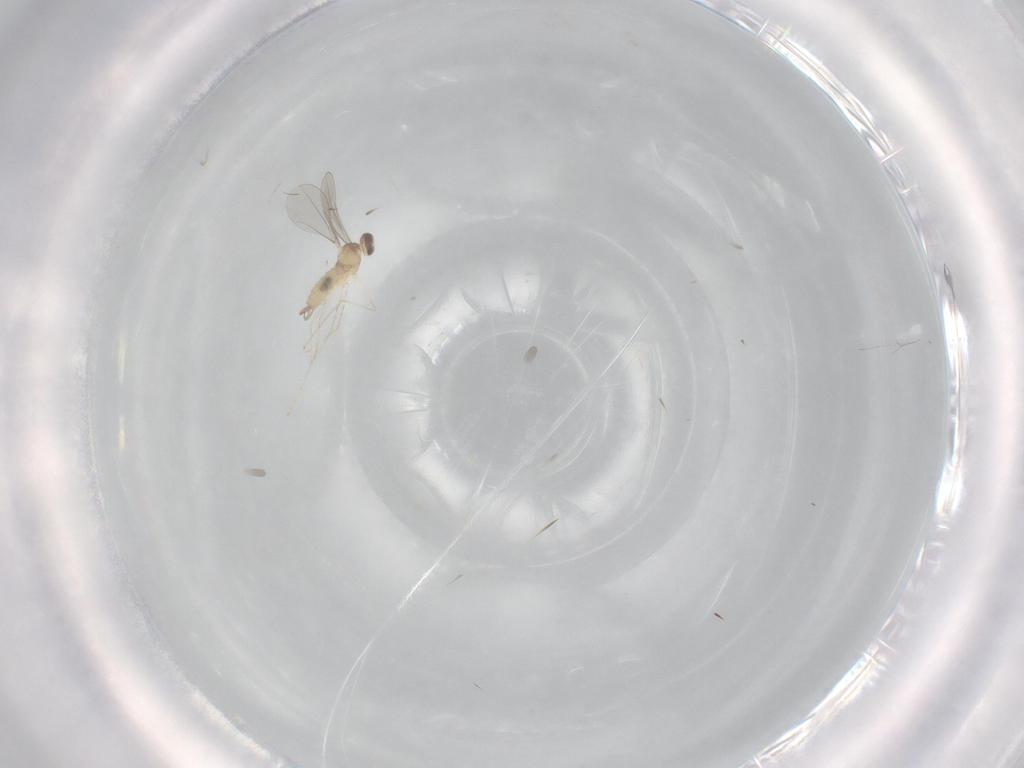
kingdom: Animalia
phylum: Arthropoda
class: Insecta
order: Diptera
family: Cecidomyiidae
